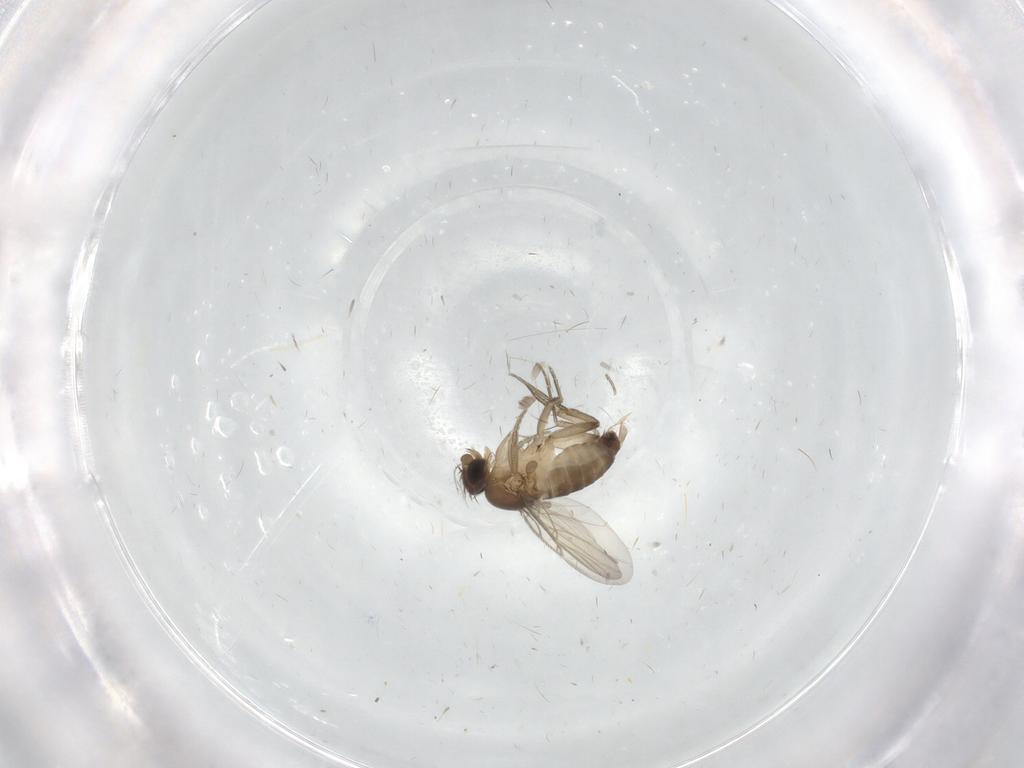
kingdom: Animalia
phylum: Arthropoda
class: Insecta
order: Diptera
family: Cecidomyiidae
